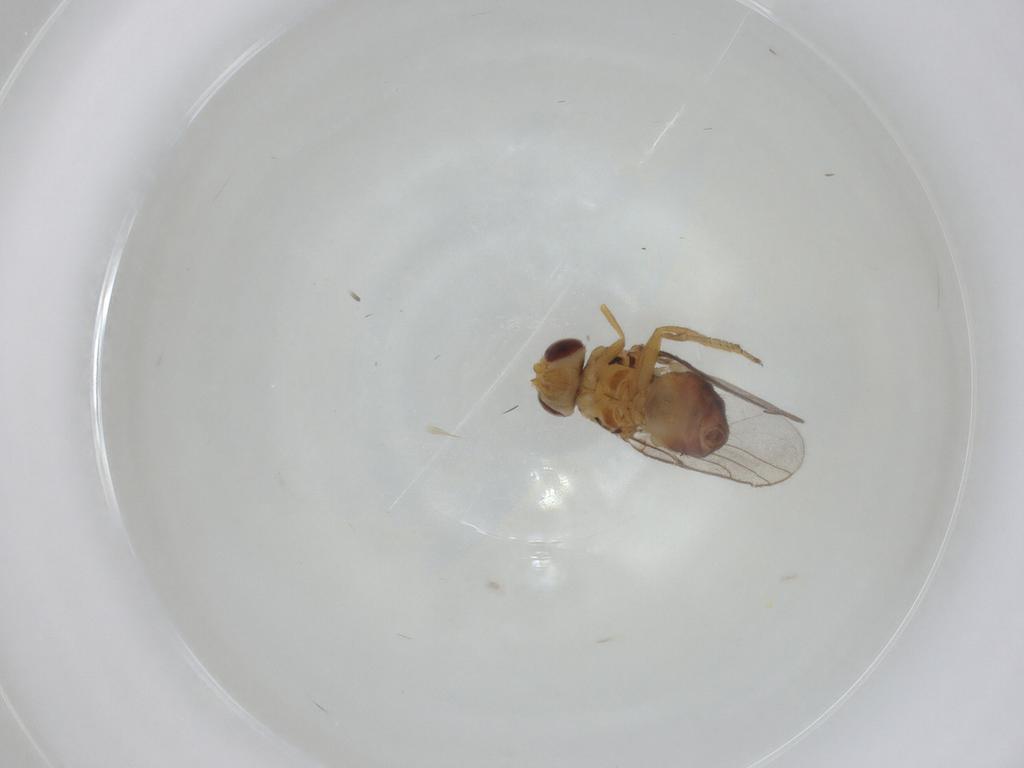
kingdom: Animalia
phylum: Arthropoda
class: Insecta
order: Diptera
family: Chloropidae
